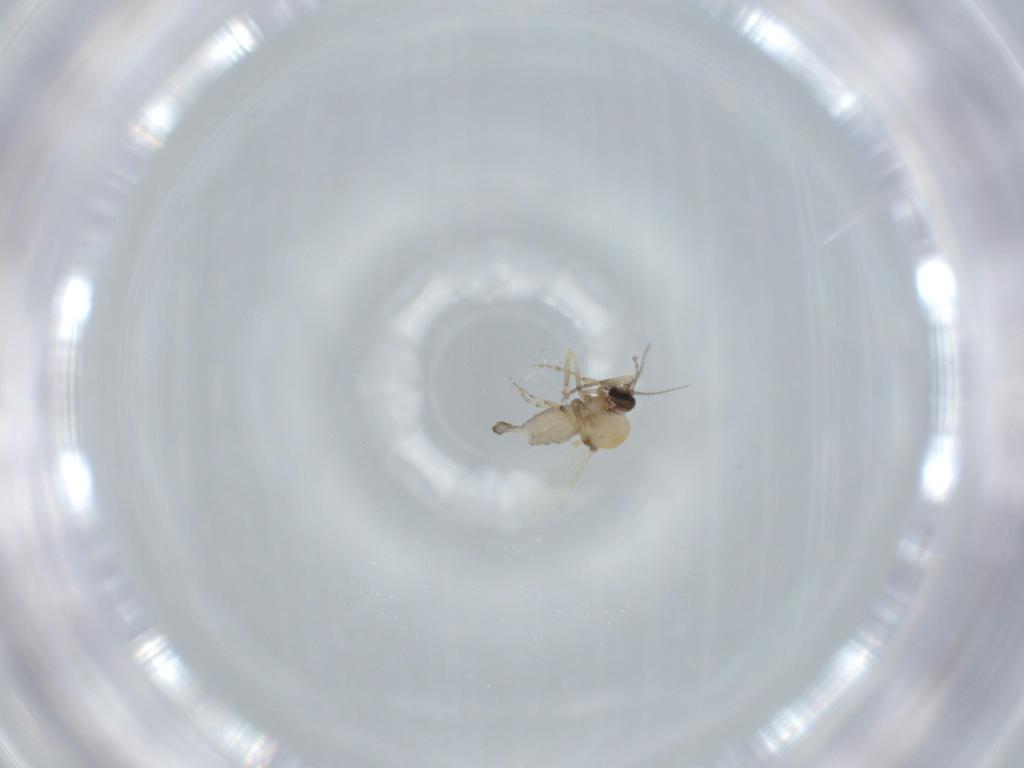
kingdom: Animalia
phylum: Arthropoda
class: Insecta
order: Diptera
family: Ceratopogonidae
